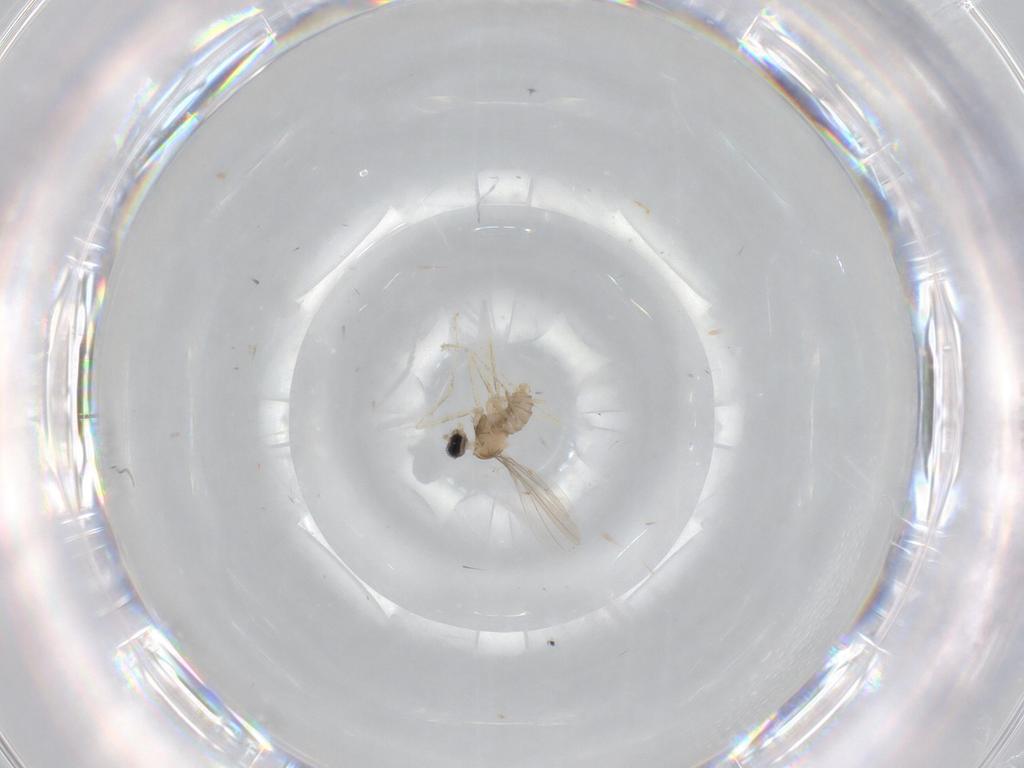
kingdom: Animalia
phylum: Arthropoda
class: Insecta
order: Diptera
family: Cecidomyiidae
